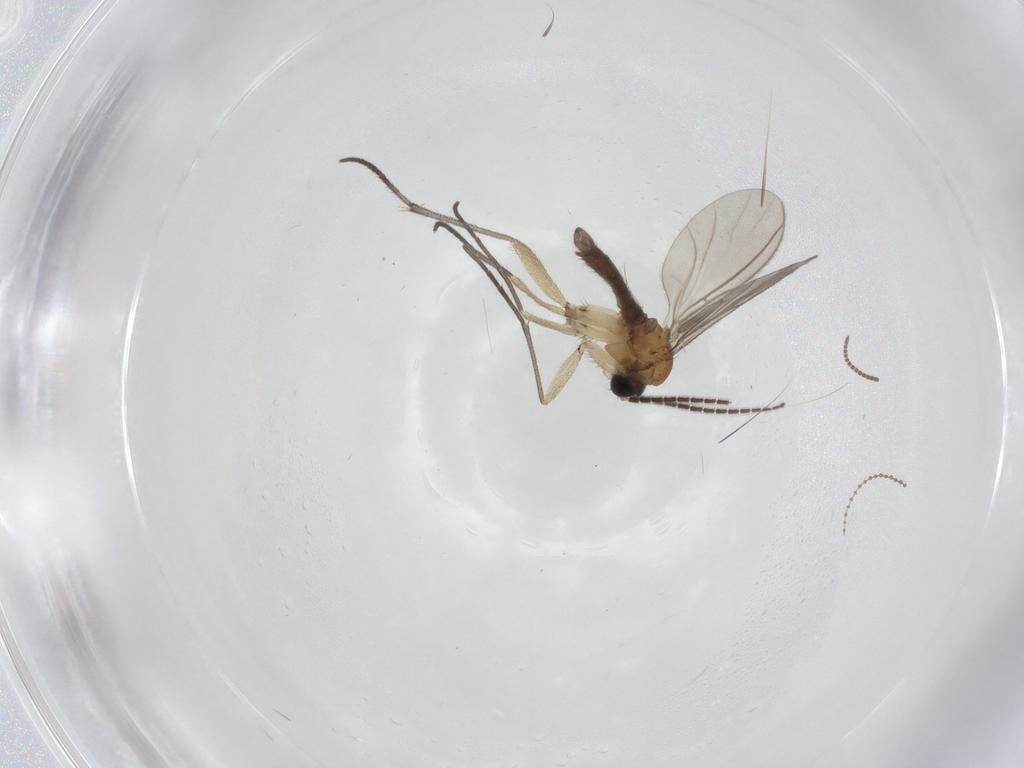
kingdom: Animalia
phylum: Arthropoda
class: Insecta
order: Diptera
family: Sciaridae
